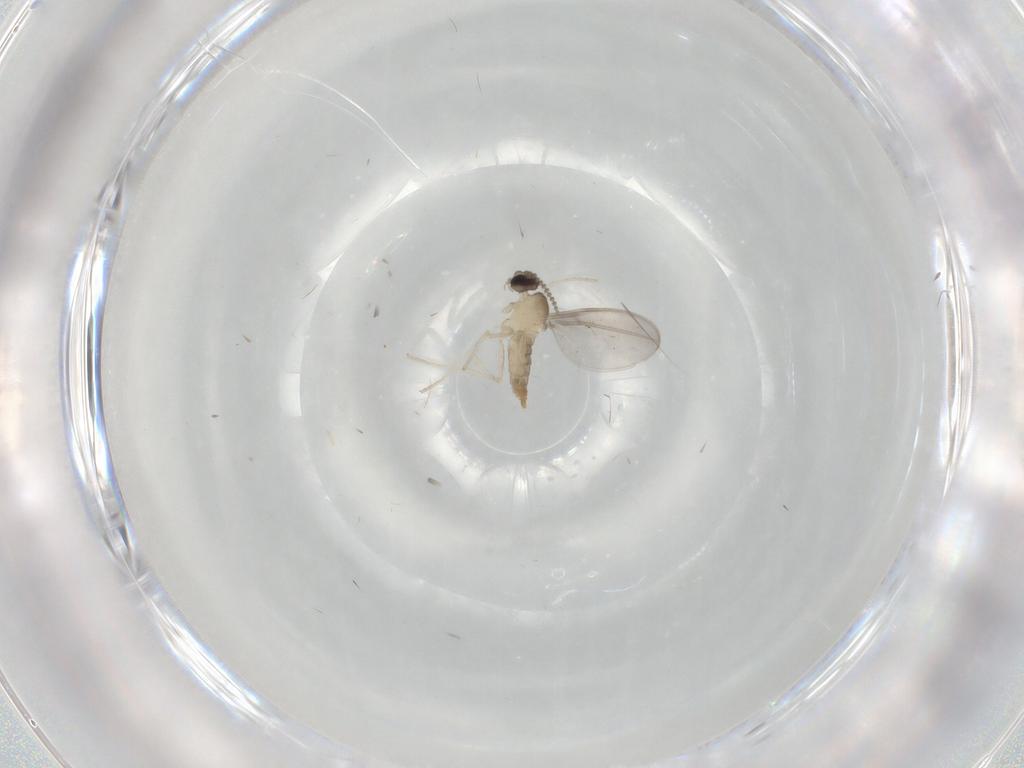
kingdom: Animalia
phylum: Arthropoda
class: Insecta
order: Diptera
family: Cecidomyiidae
